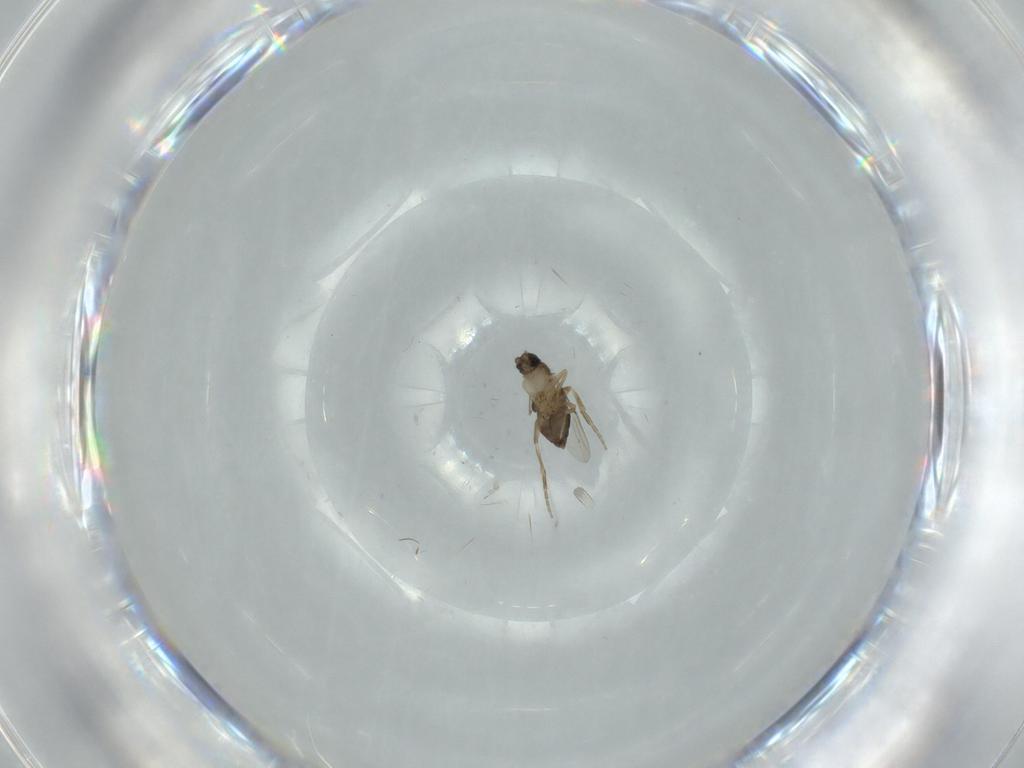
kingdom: Animalia
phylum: Arthropoda
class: Insecta
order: Diptera
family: Phoridae
